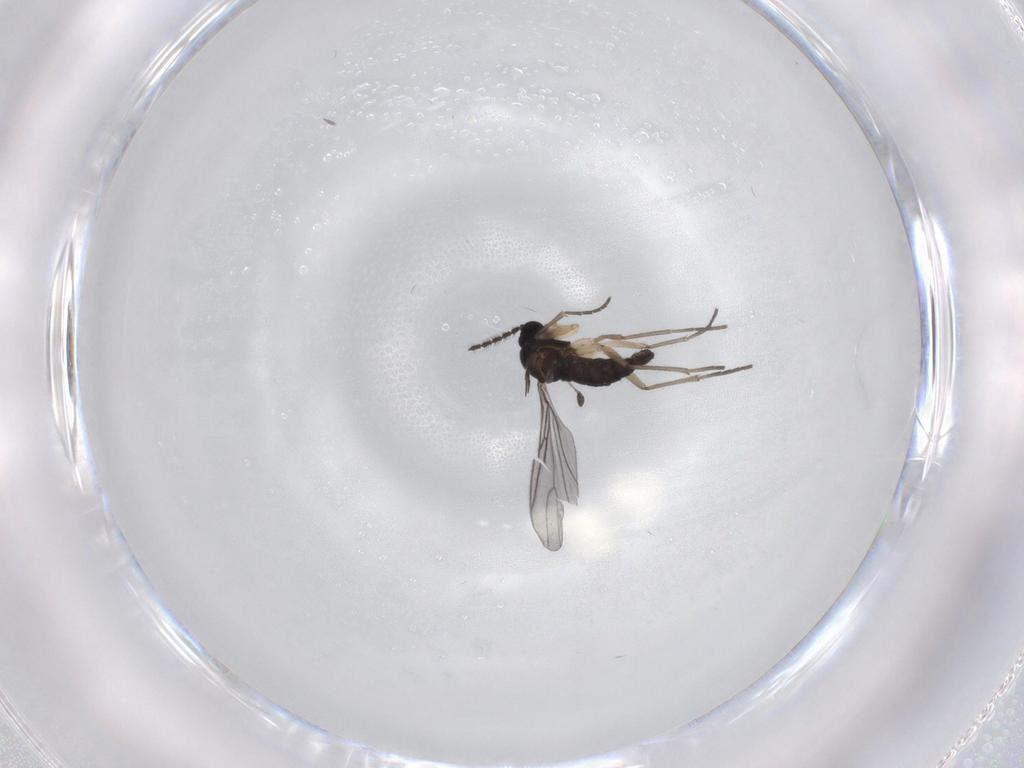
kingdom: Animalia
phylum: Arthropoda
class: Insecta
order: Diptera
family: Sciaridae
